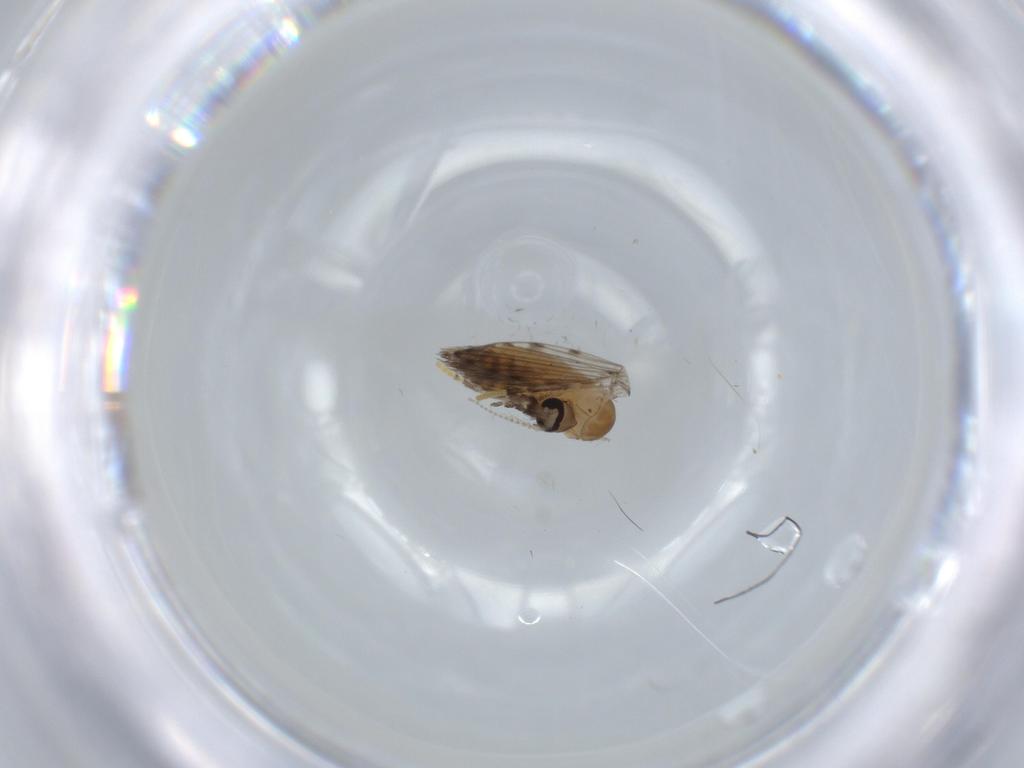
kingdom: Animalia
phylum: Arthropoda
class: Insecta
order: Diptera
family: Psychodidae
